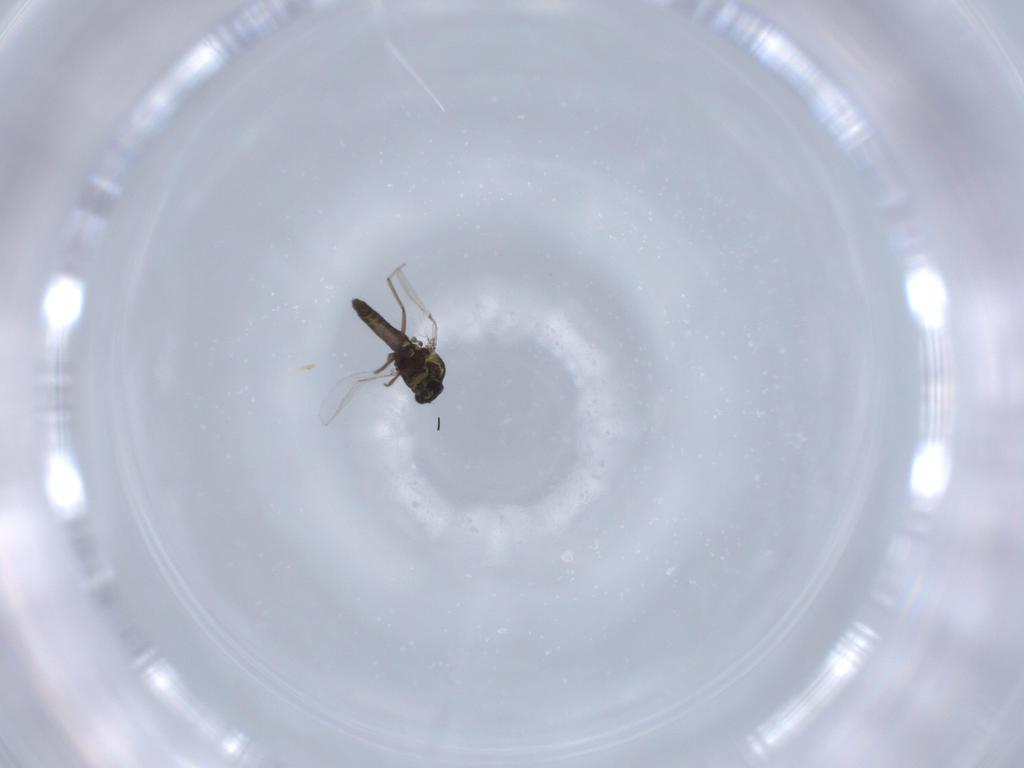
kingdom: Animalia
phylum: Arthropoda
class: Insecta
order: Diptera
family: Ceratopogonidae
